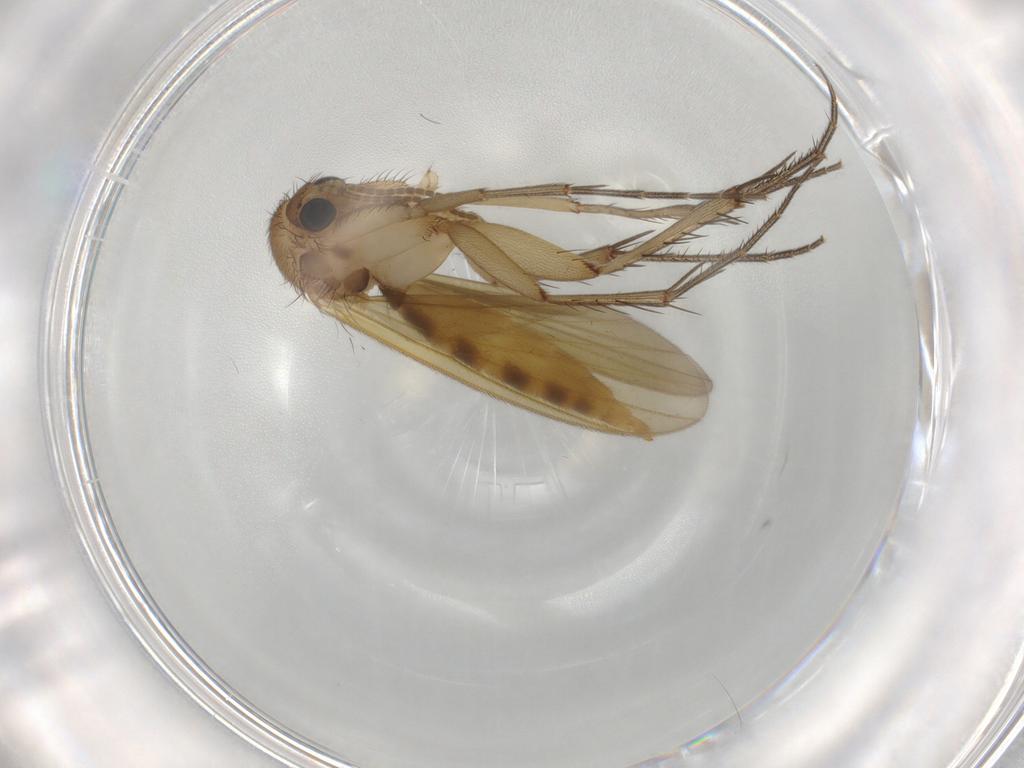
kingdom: Animalia
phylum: Arthropoda
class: Insecta
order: Diptera
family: Mycetophilidae
